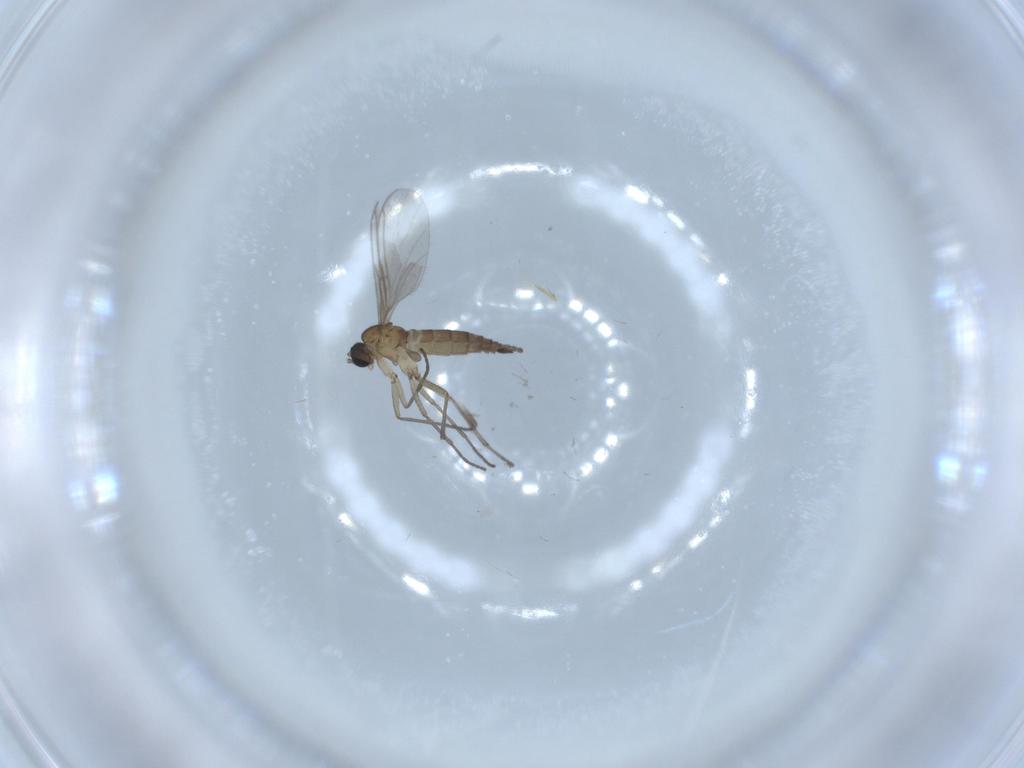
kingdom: Animalia
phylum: Arthropoda
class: Insecta
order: Diptera
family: Sciaridae
